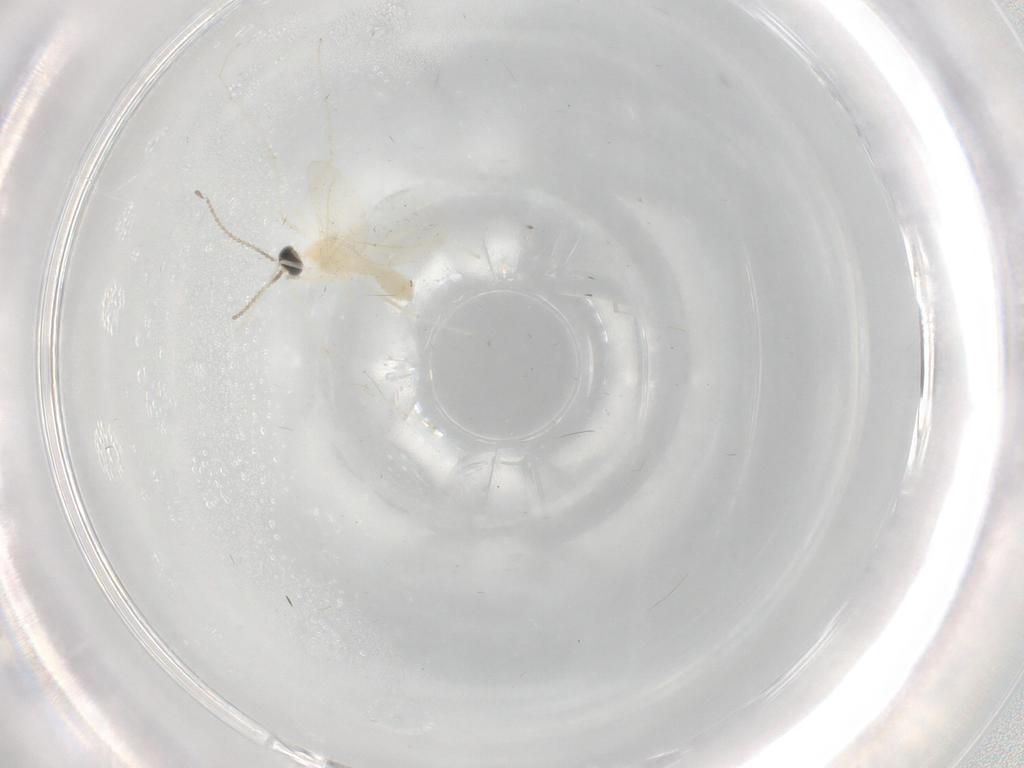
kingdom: Animalia
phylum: Arthropoda
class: Insecta
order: Diptera
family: Cecidomyiidae
